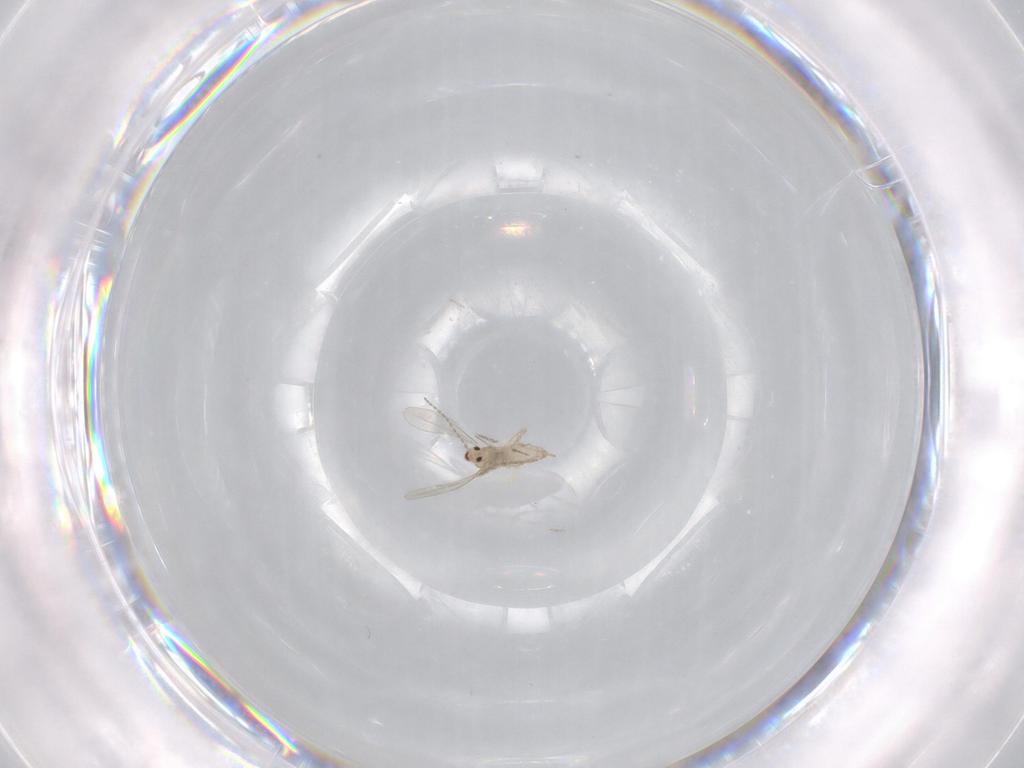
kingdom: Animalia
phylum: Arthropoda
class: Insecta
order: Diptera
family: Cecidomyiidae
